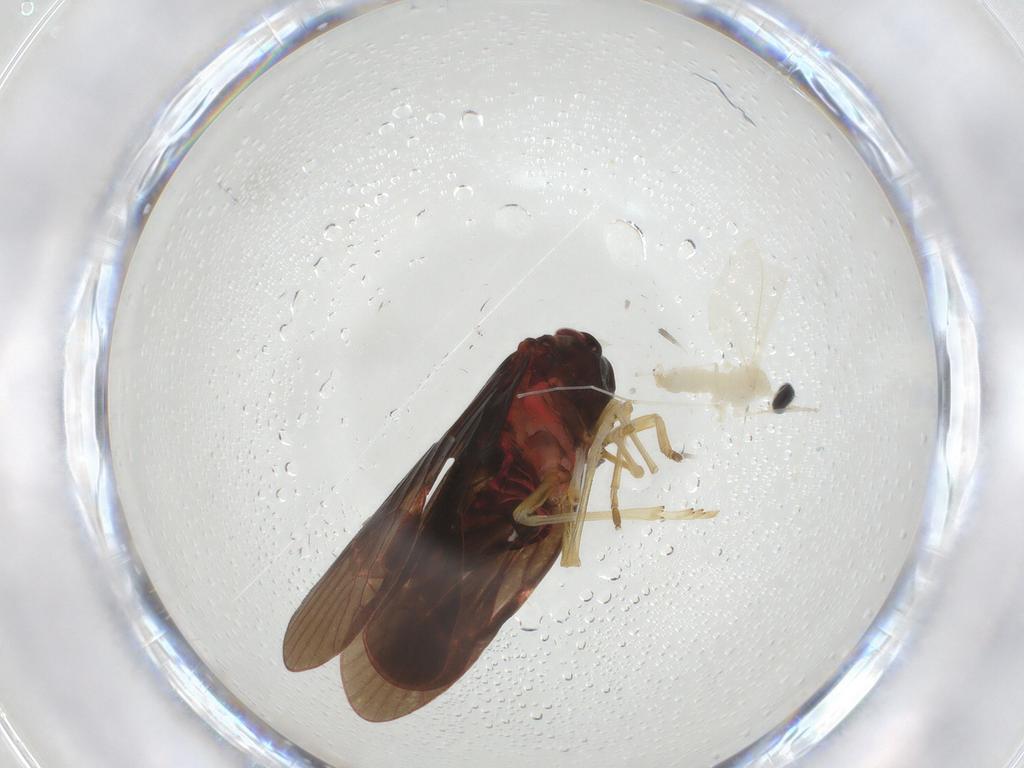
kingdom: Animalia
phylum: Arthropoda
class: Insecta
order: Diptera
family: Cecidomyiidae
